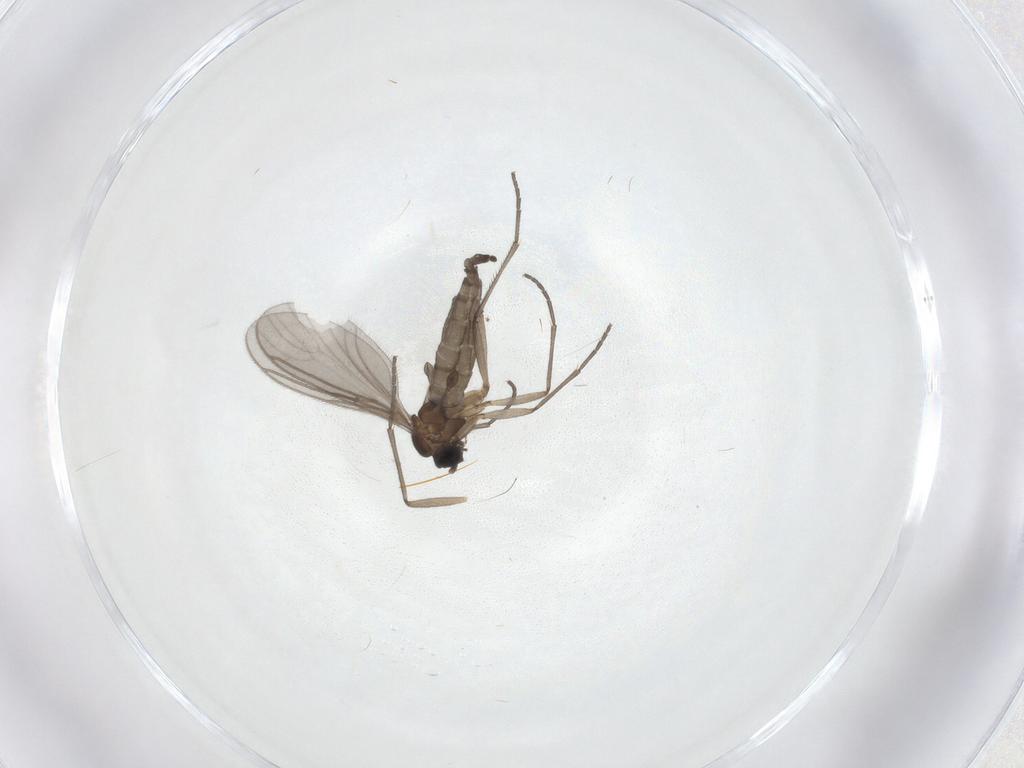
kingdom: Animalia
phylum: Arthropoda
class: Insecta
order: Diptera
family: Sciaridae
